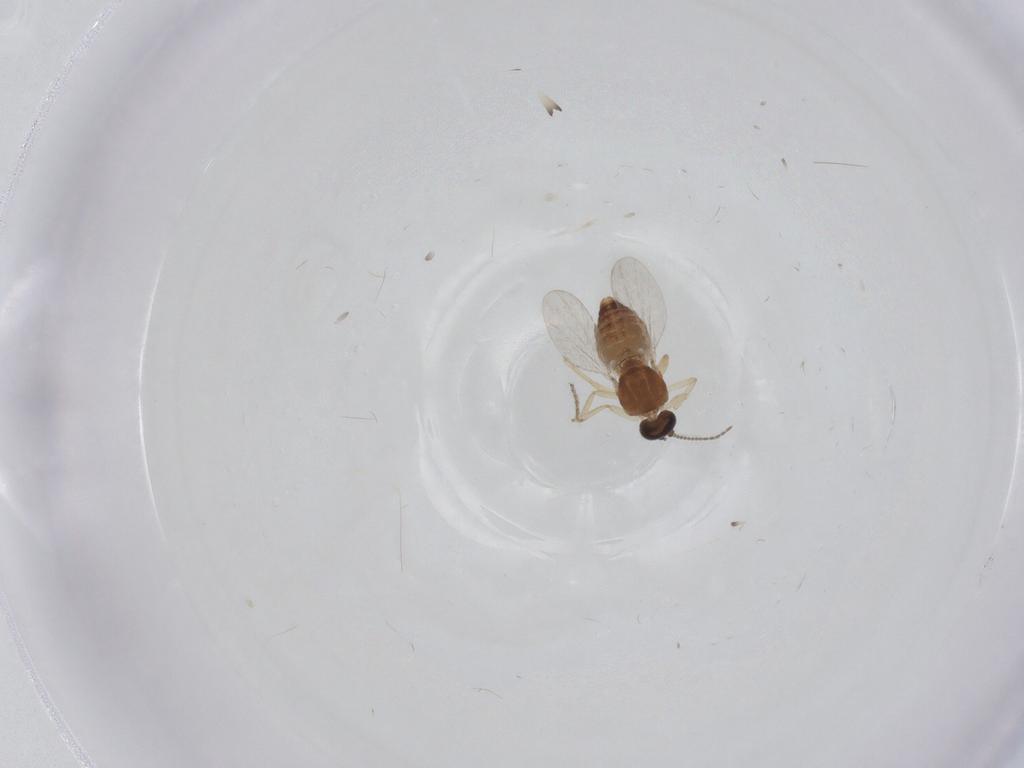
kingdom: Animalia
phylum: Arthropoda
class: Insecta
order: Diptera
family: Ceratopogonidae
